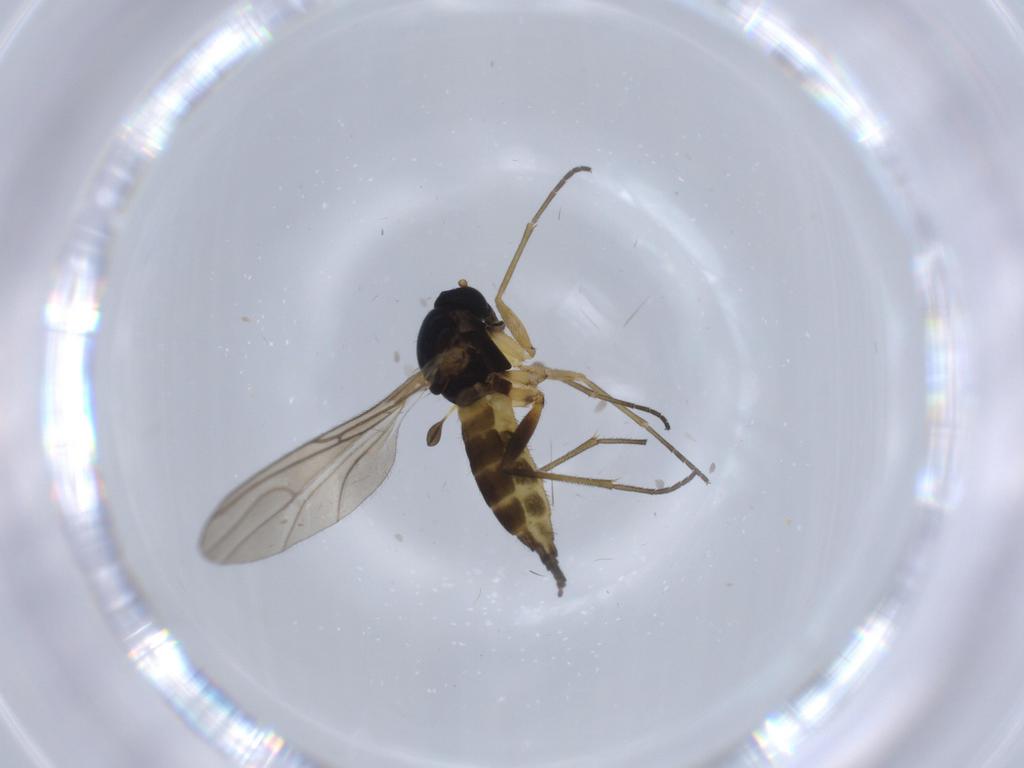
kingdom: Animalia
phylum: Arthropoda
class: Insecta
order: Diptera
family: Sciaridae
